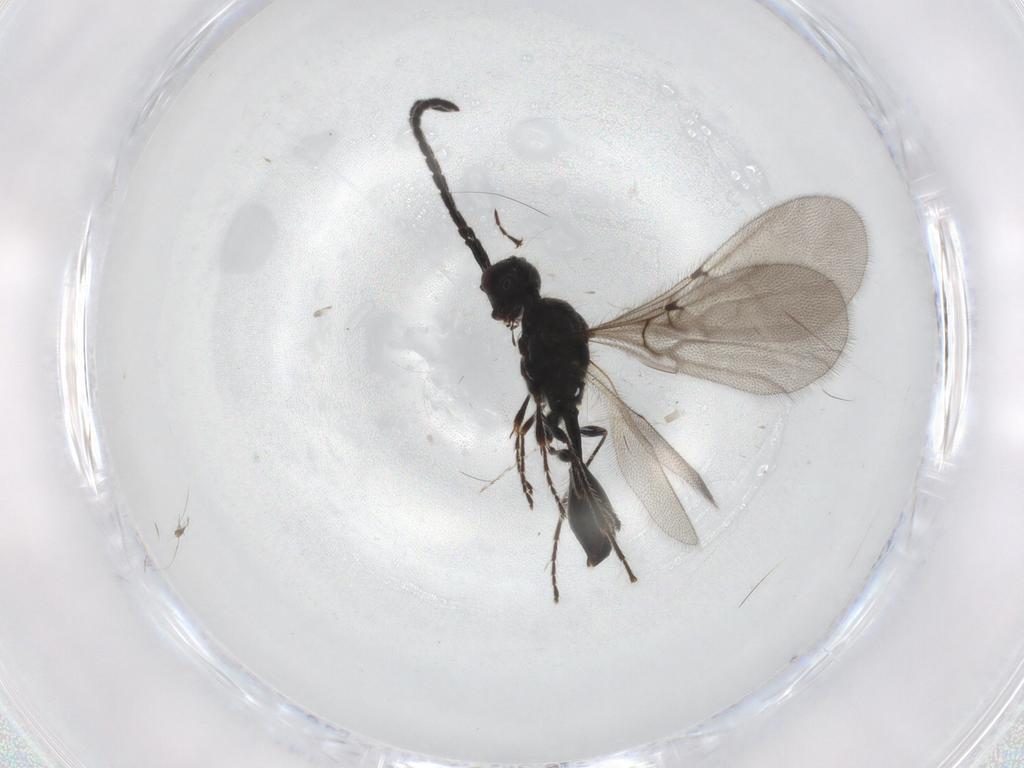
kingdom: Animalia
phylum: Arthropoda
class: Insecta
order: Hymenoptera
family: Diapriidae
